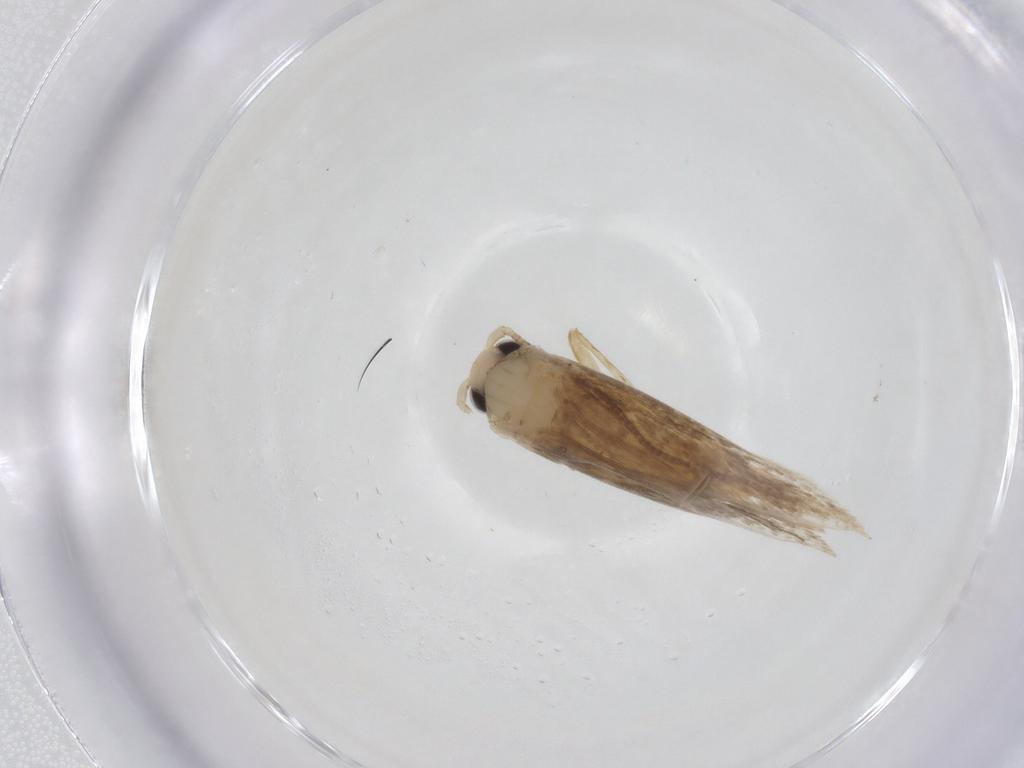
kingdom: Animalia
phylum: Arthropoda
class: Insecta
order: Lepidoptera
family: Tineidae
